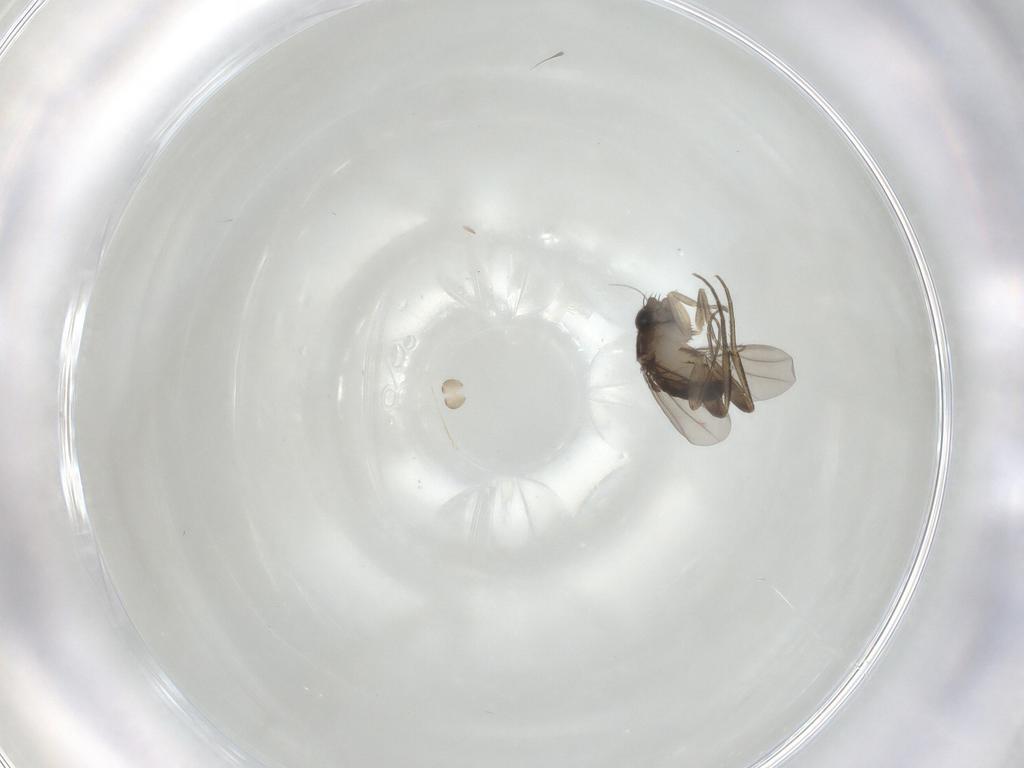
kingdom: Animalia
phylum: Arthropoda
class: Insecta
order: Diptera
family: Phoridae
